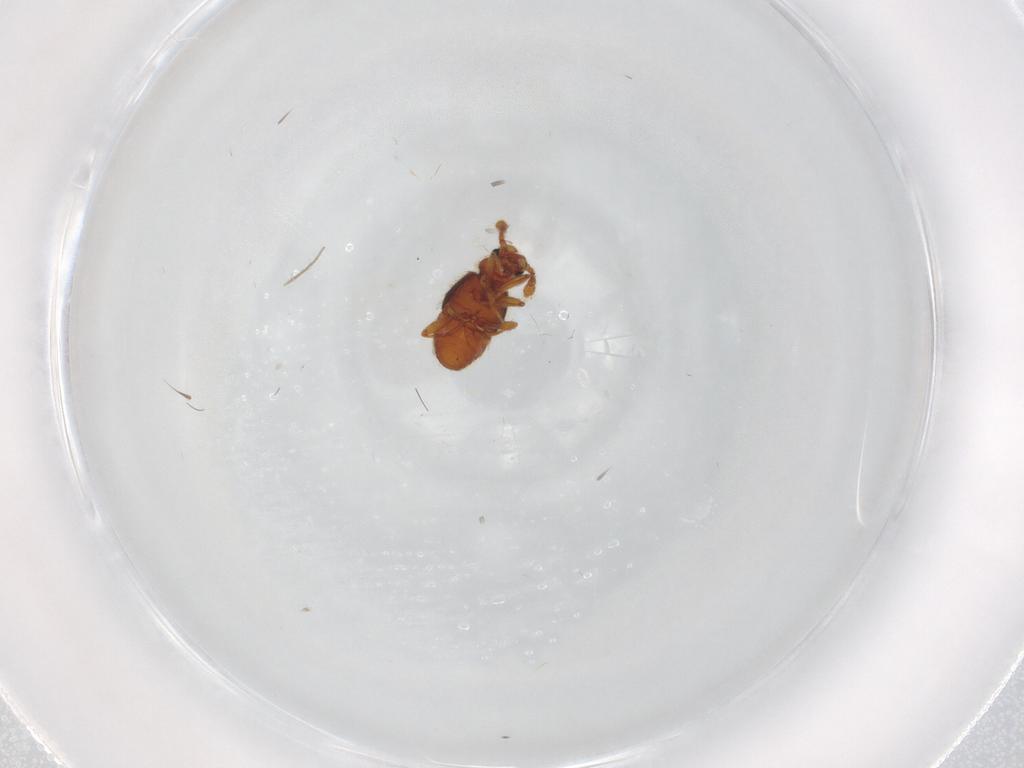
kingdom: Animalia
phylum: Arthropoda
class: Insecta
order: Coleoptera
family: Staphylinidae
